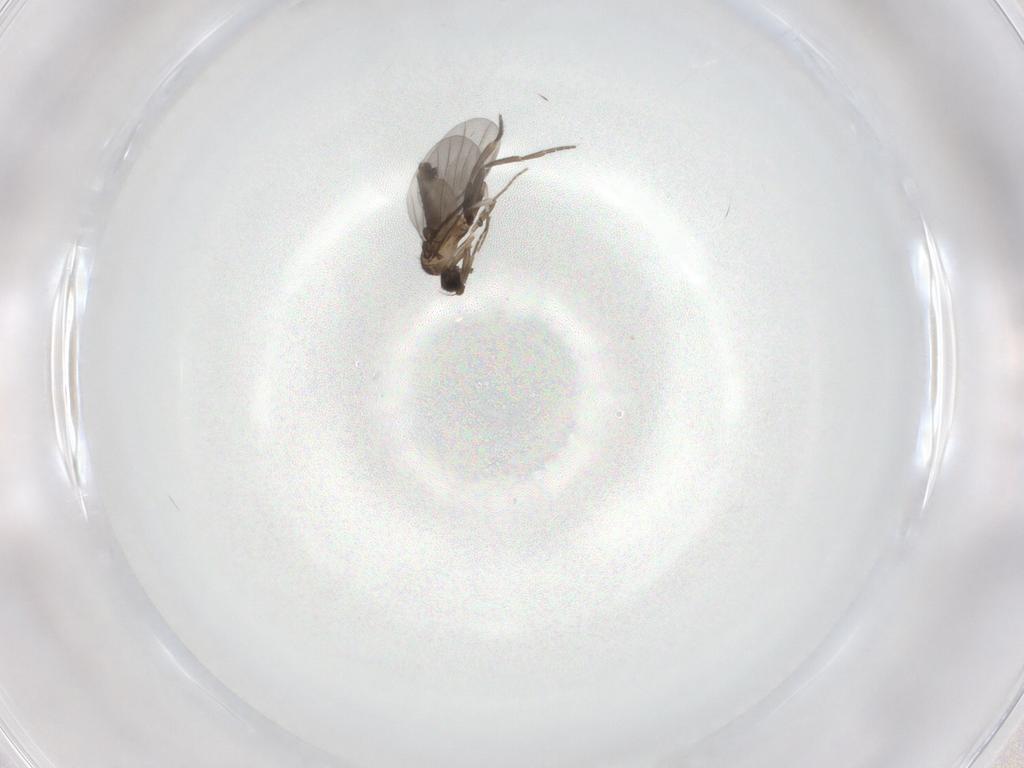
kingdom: Animalia
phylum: Arthropoda
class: Insecta
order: Diptera
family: Phoridae
